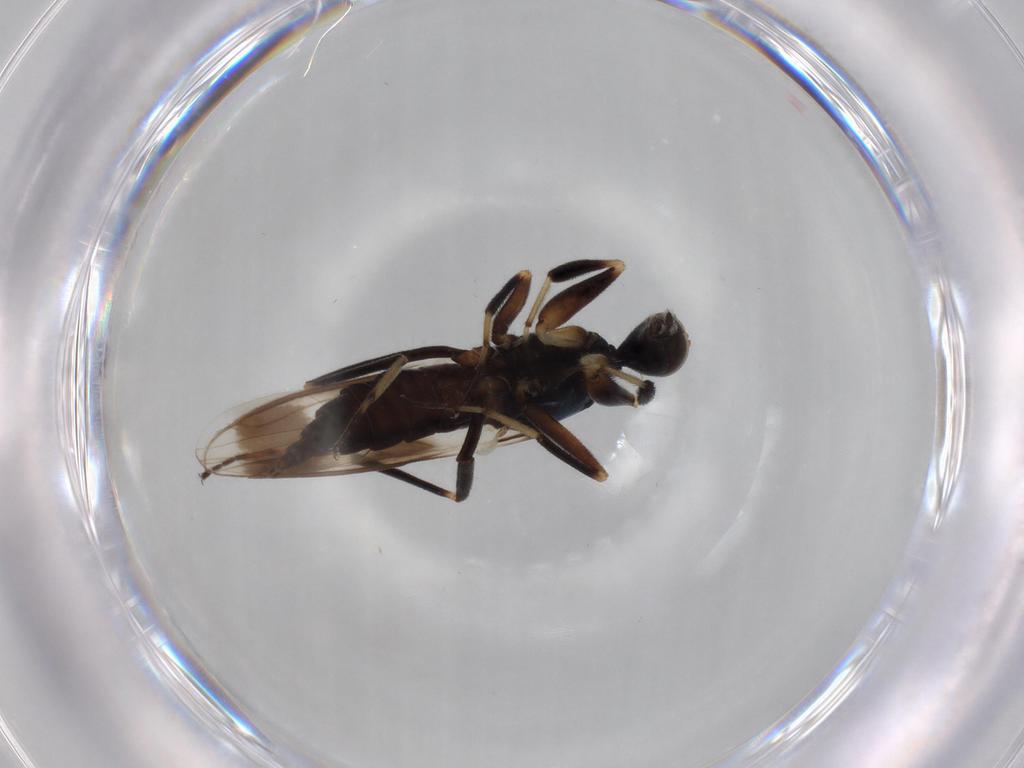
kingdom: Animalia
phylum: Arthropoda
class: Insecta
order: Diptera
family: Hybotidae
